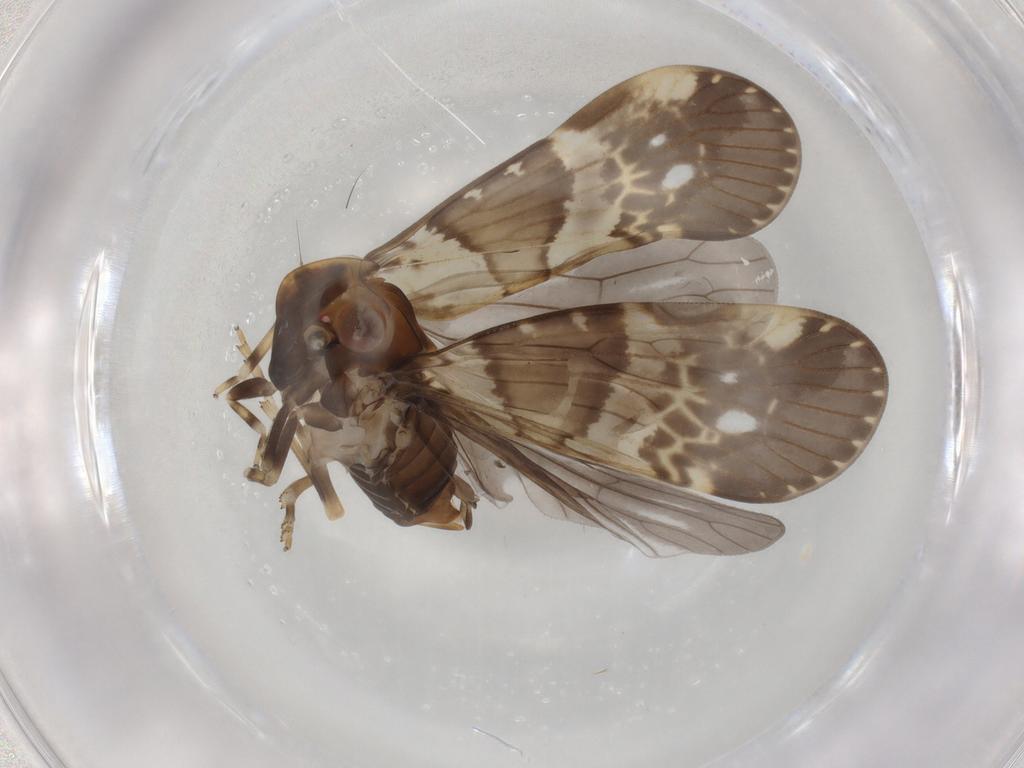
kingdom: Animalia
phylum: Arthropoda
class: Insecta
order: Hemiptera
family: Cixiidae
